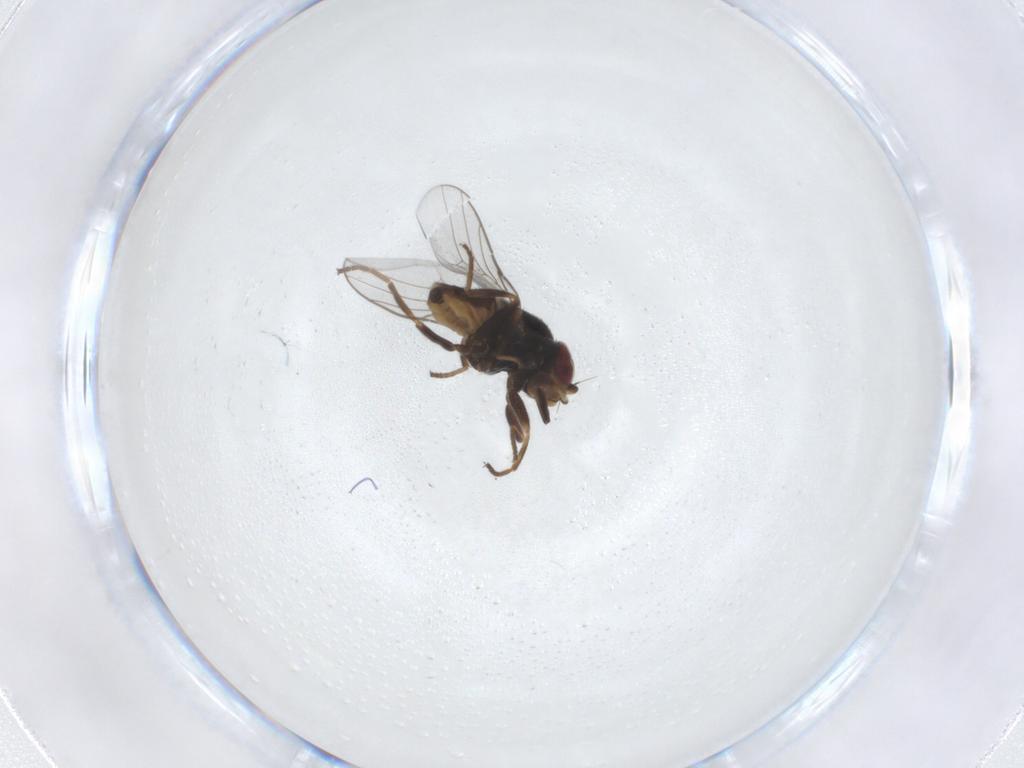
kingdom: Animalia
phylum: Arthropoda
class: Insecta
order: Diptera
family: Chloropidae
